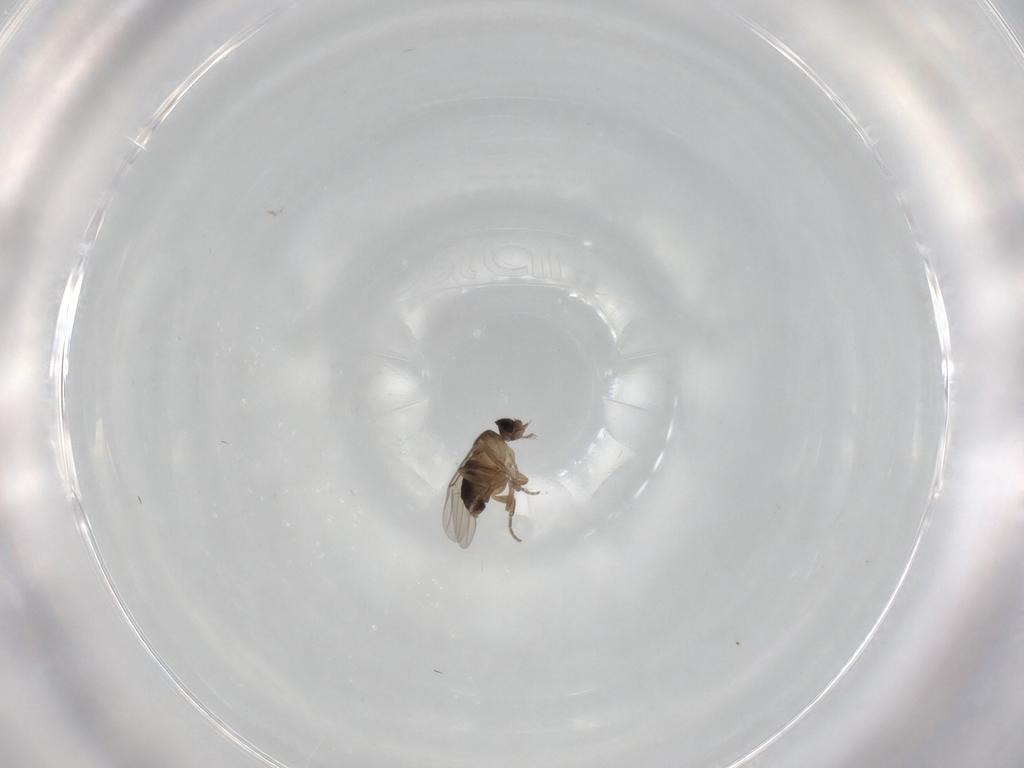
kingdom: Animalia
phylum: Arthropoda
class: Insecta
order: Diptera
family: Phoridae
